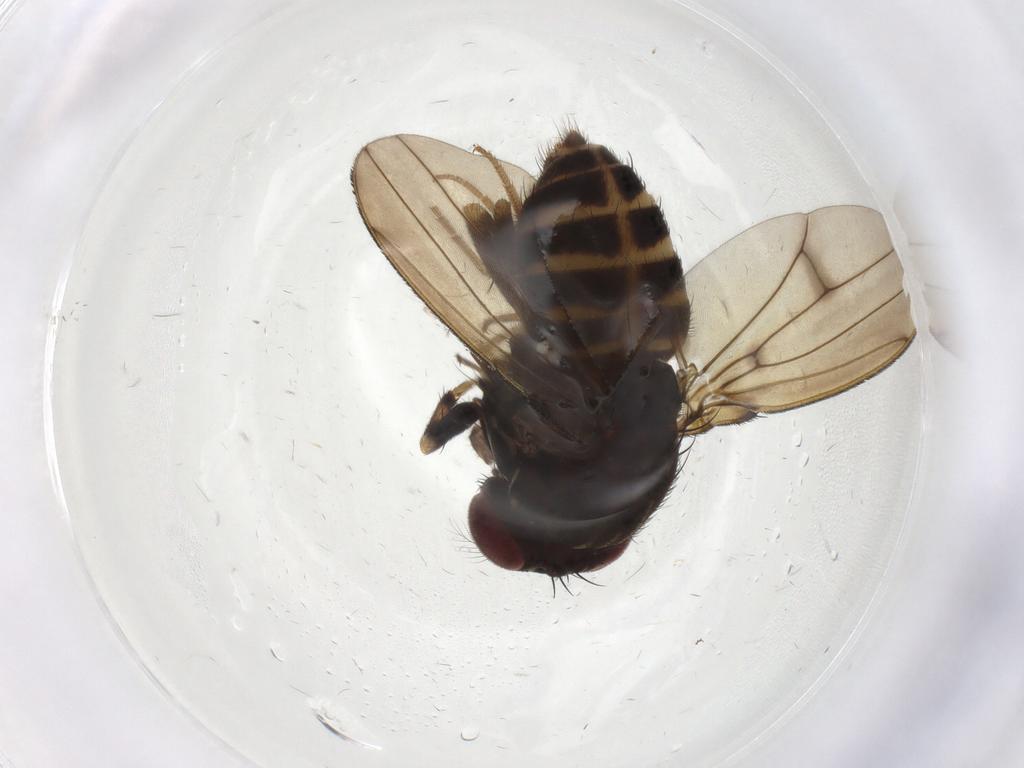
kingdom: Animalia
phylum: Arthropoda
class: Insecta
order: Diptera
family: Drosophilidae
